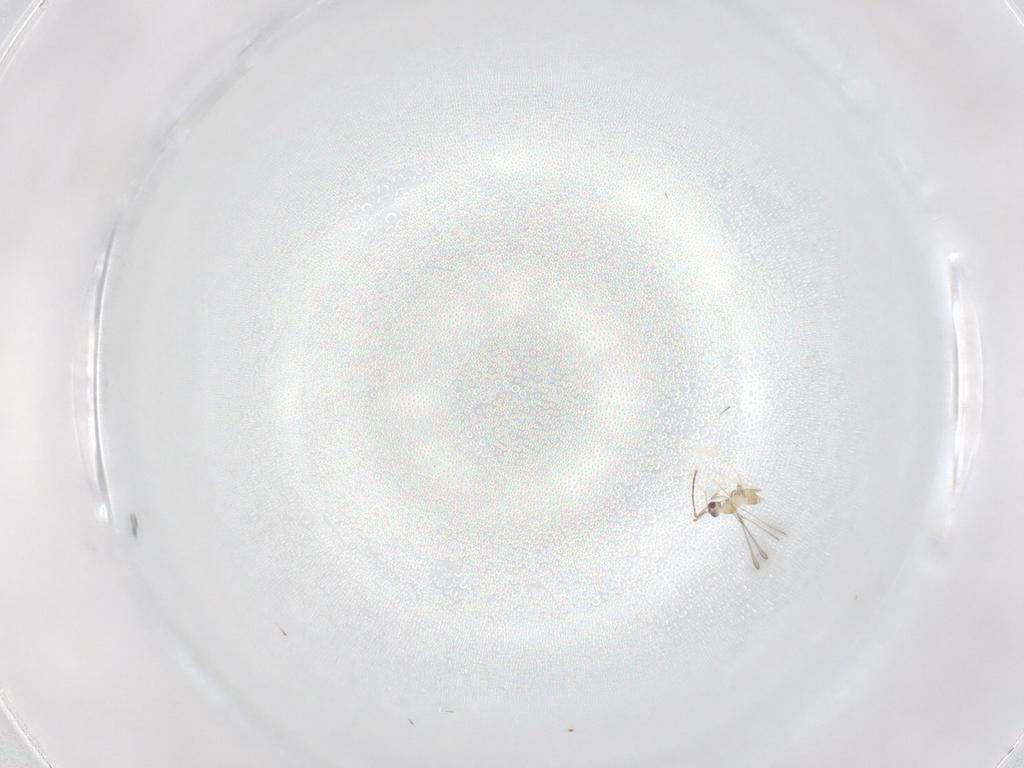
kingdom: Animalia
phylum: Arthropoda
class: Insecta
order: Hymenoptera
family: Mymaridae
